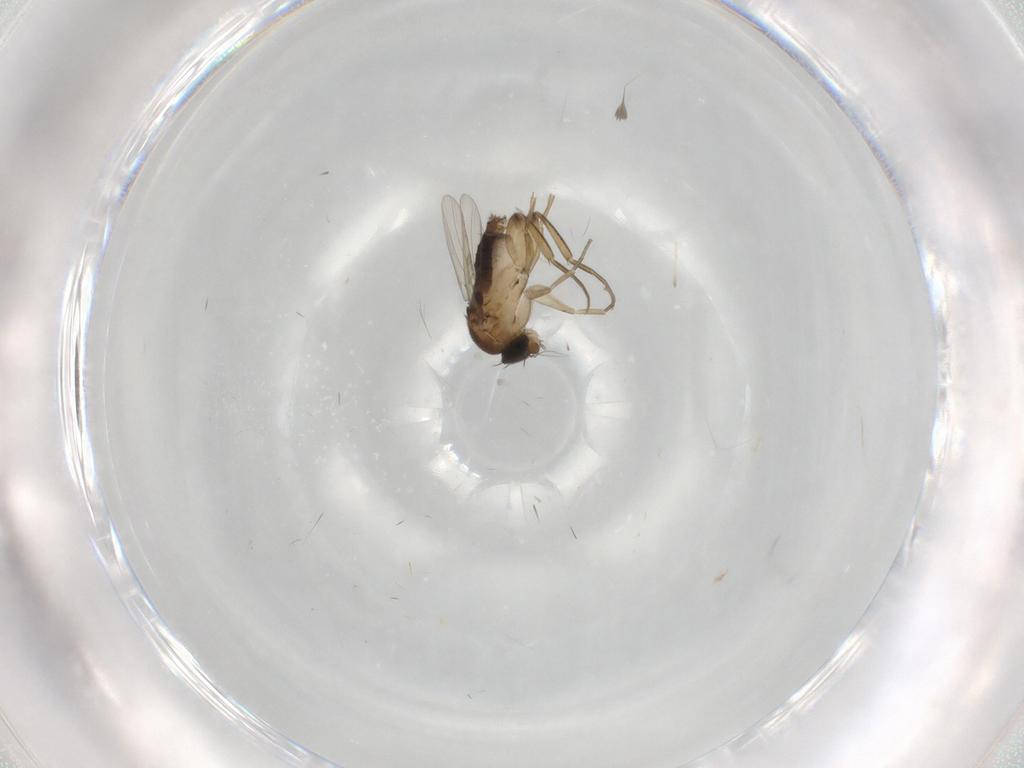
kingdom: Animalia
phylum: Arthropoda
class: Insecta
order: Diptera
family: Phoridae
